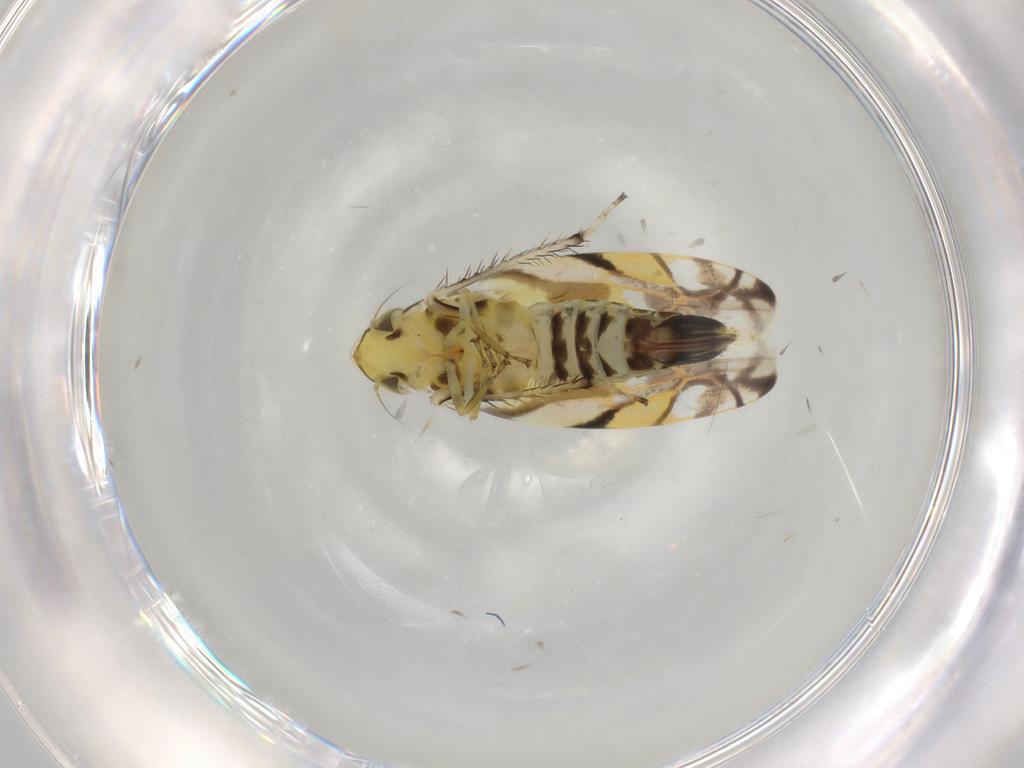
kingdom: Animalia
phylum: Arthropoda
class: Insecta
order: Hemiptera
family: Cicadellidae
